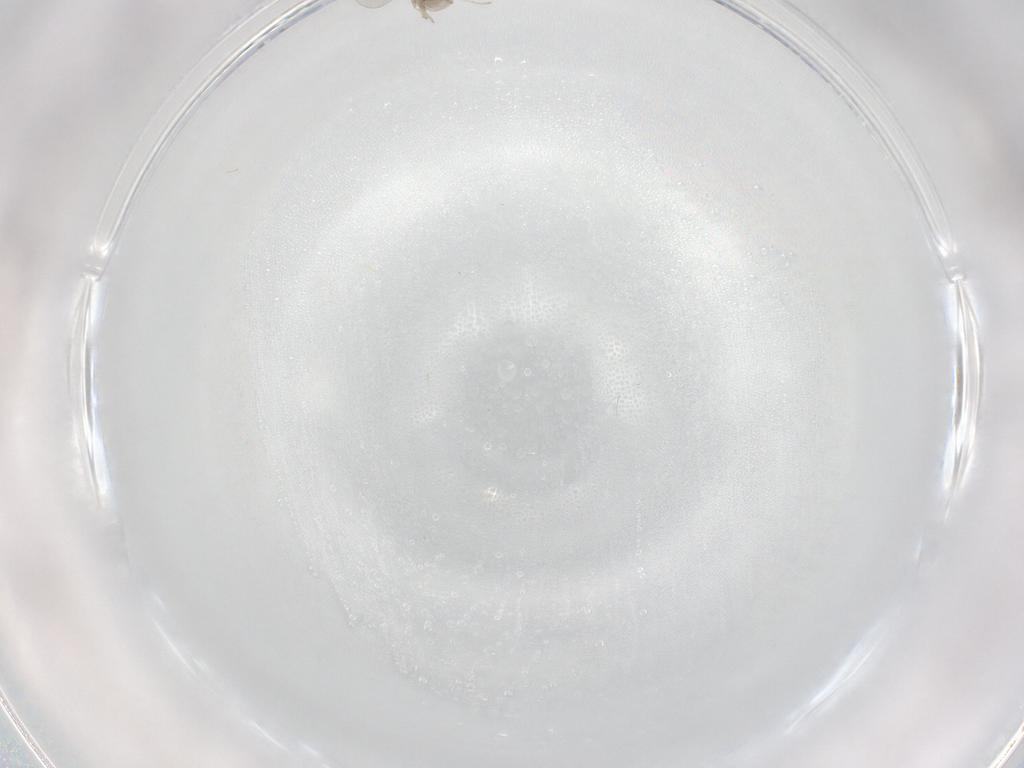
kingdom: Animalia
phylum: Arthropoda
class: Insecta
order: Diptera
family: Cecidomyiidae
